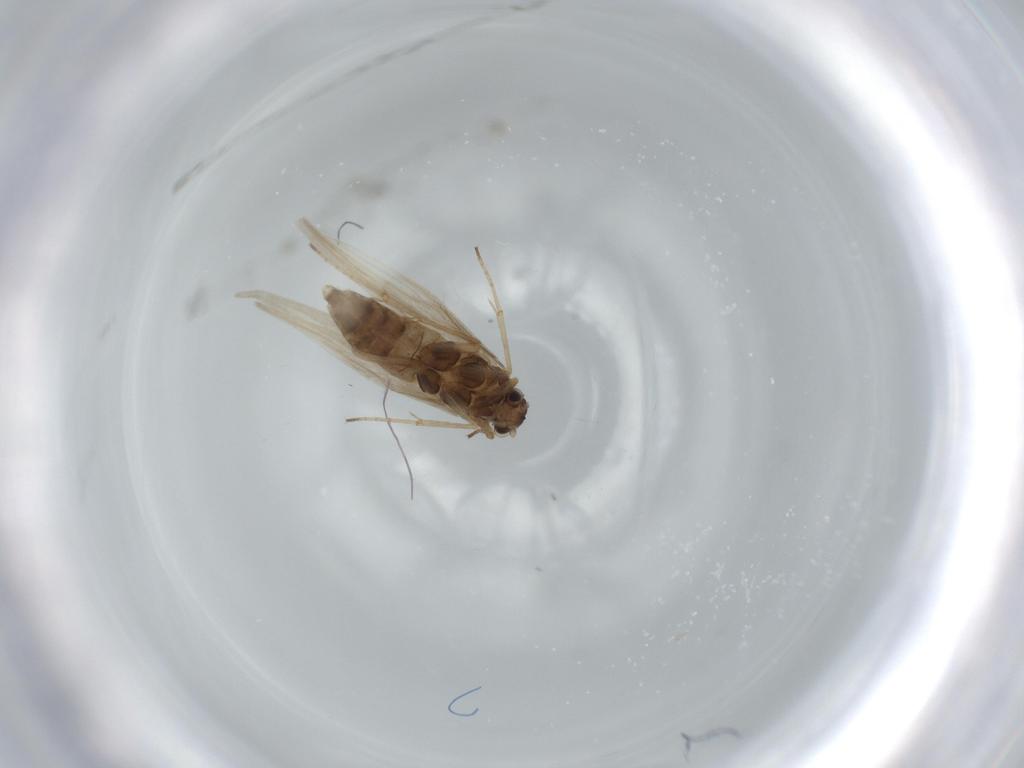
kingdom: Animalia
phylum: Arthropoda
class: Insecta
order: Trichoptera
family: Hydroptilidae
